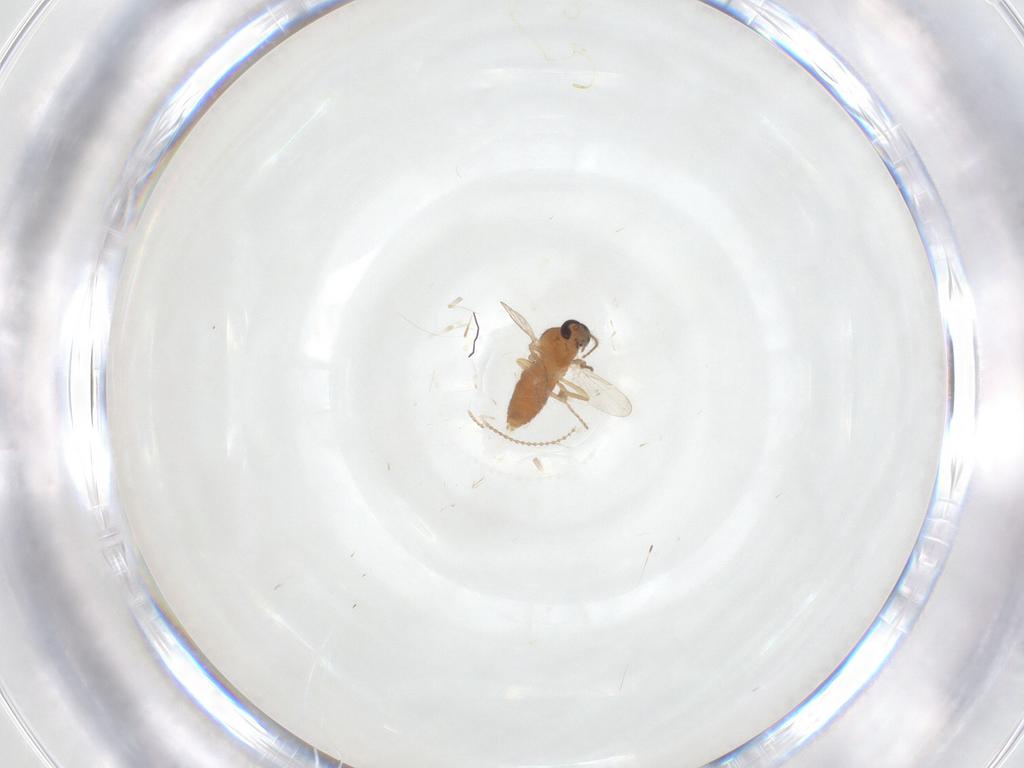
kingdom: Animalia
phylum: Arthropoda
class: Insecta
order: Diptera
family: Ceratopogonidae
